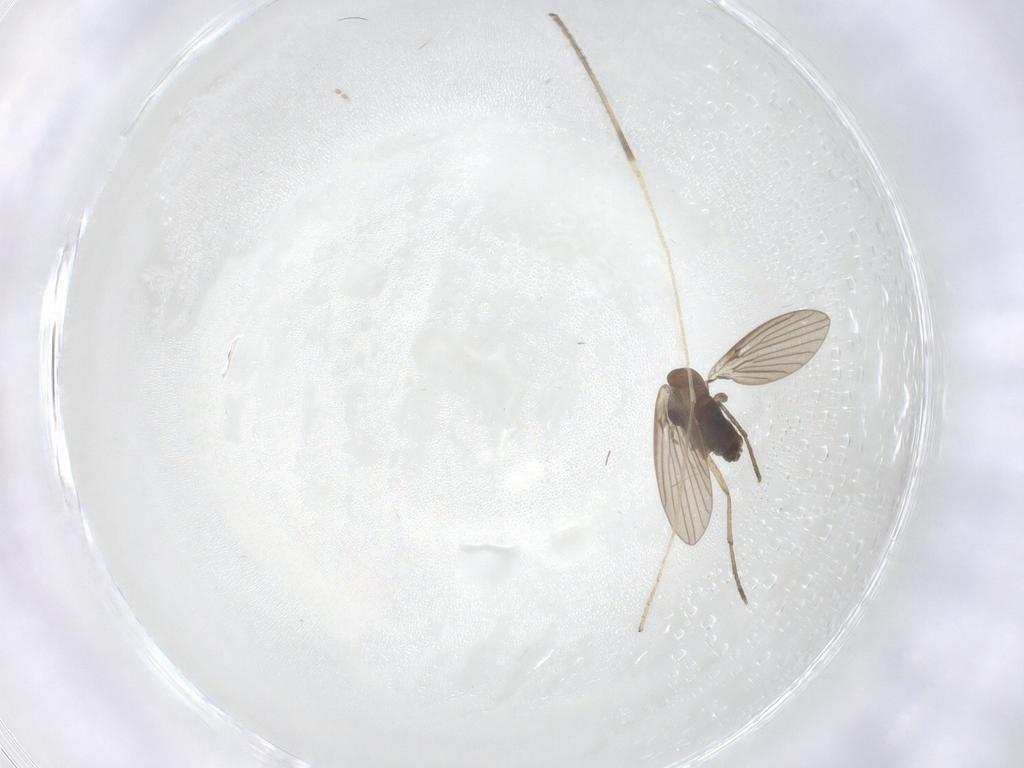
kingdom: Animalia
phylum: Arthropoda
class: Insecta
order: Diptera
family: Limoniidae
